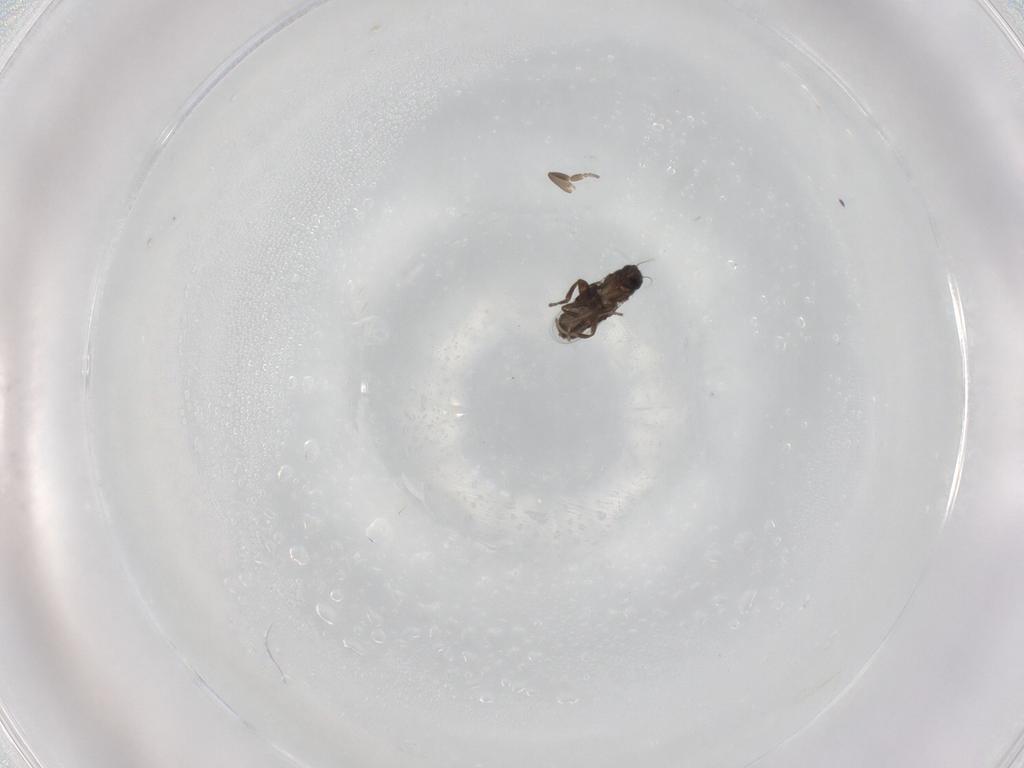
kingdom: Animalia
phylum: Arthropoda
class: Insecta
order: Diptera
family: Phoridae
